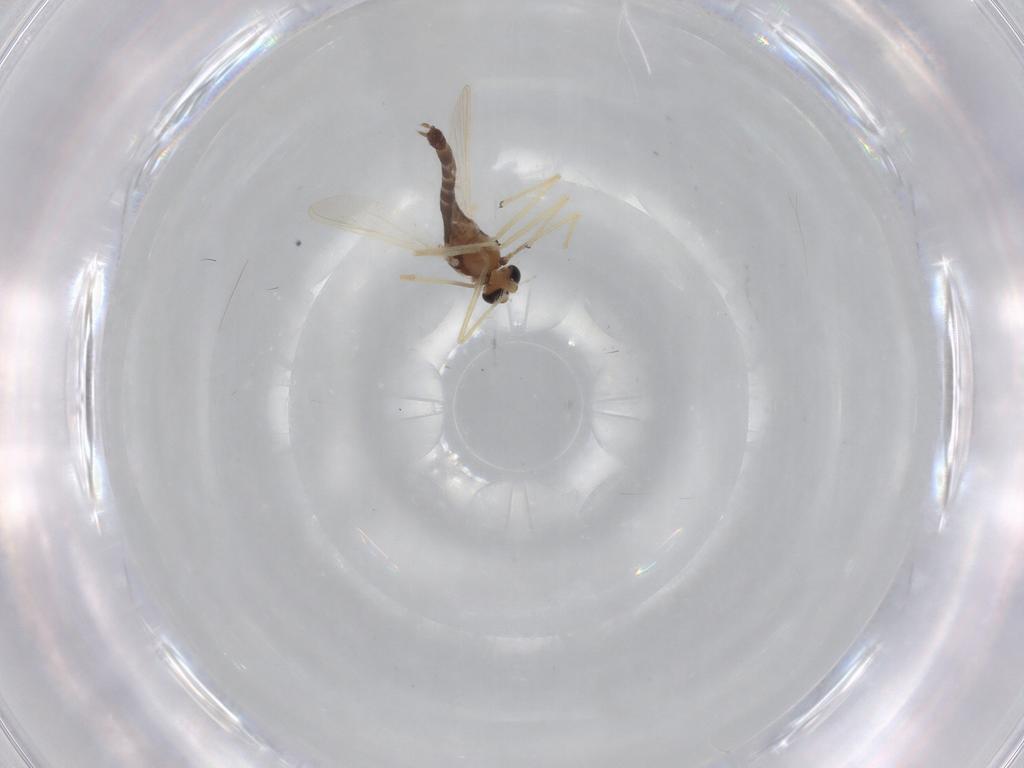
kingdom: Animalia
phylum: Arthropoda
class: Insecta
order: Diptera
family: Chironomidae
